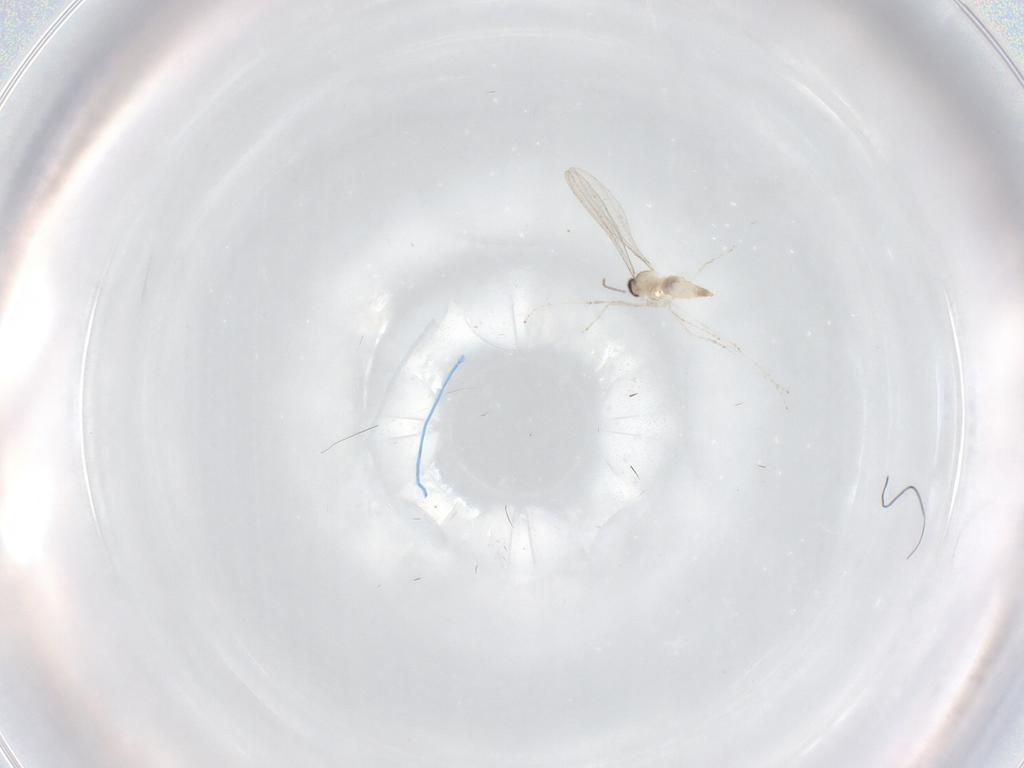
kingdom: Animalia
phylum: Arthropoda
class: Insecta
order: Diptera
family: Cecidomyiidae
